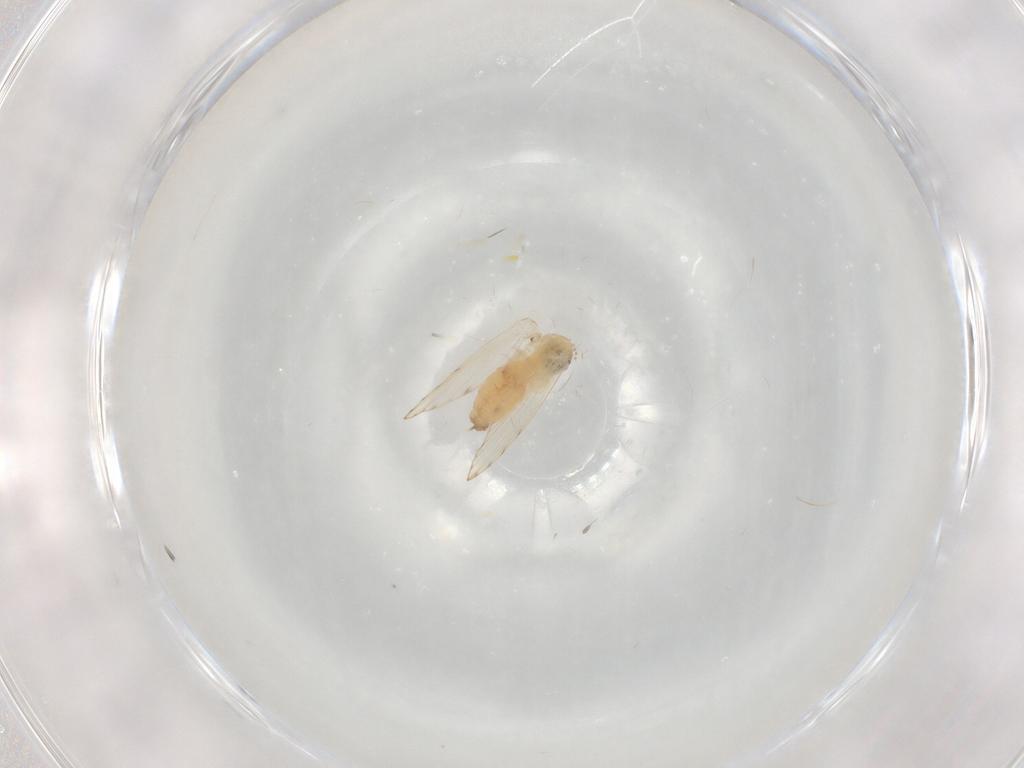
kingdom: Animalia
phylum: Arthropoda
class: Insecta
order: Diptera
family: Psychodidae
